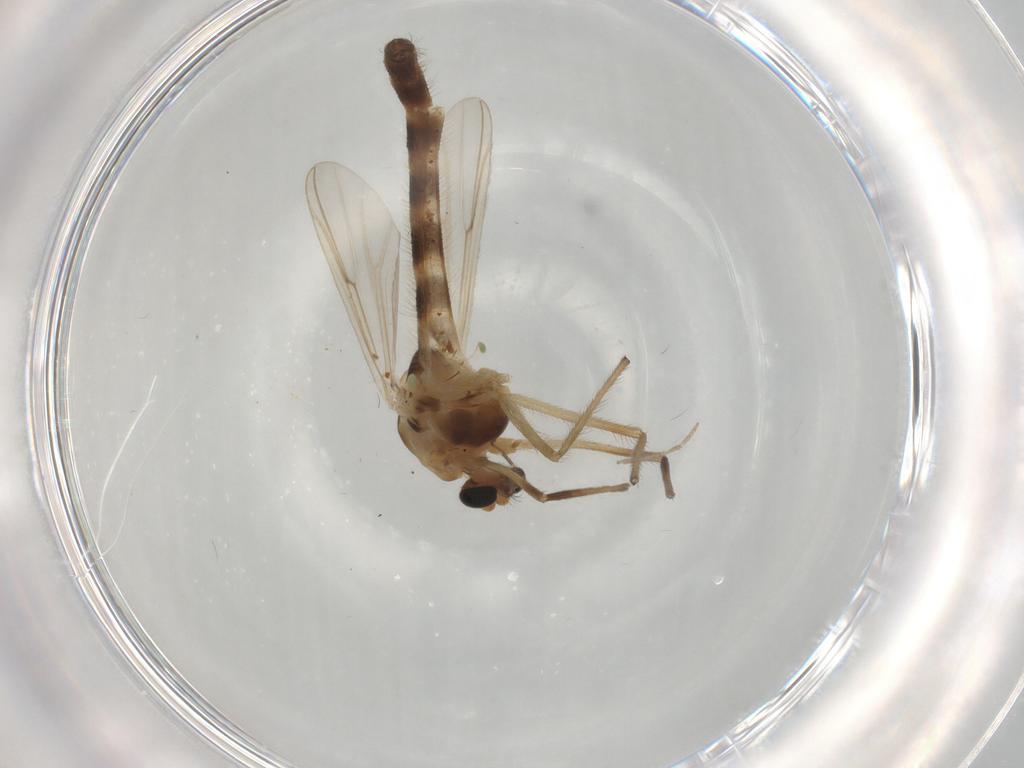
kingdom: Animalia
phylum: Arthropoda
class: Insecta
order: Diptera
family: Chironomidae
